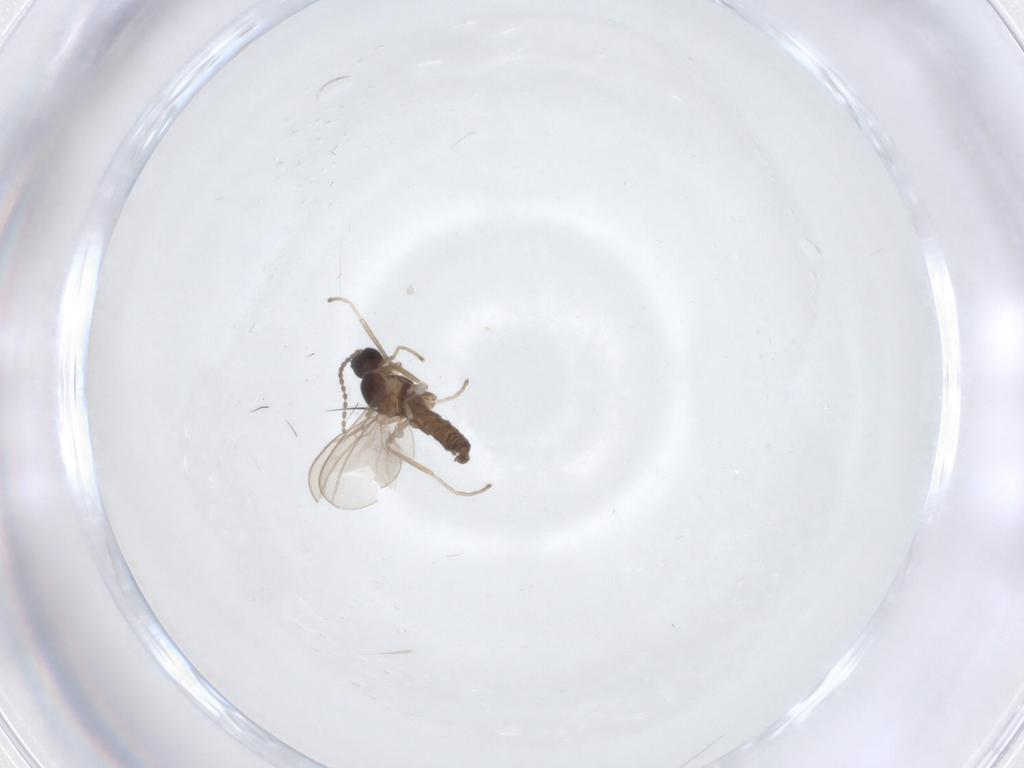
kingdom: Animalia
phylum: Arthropoda
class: Insecta
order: Diptera
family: Cecidomyiidae
